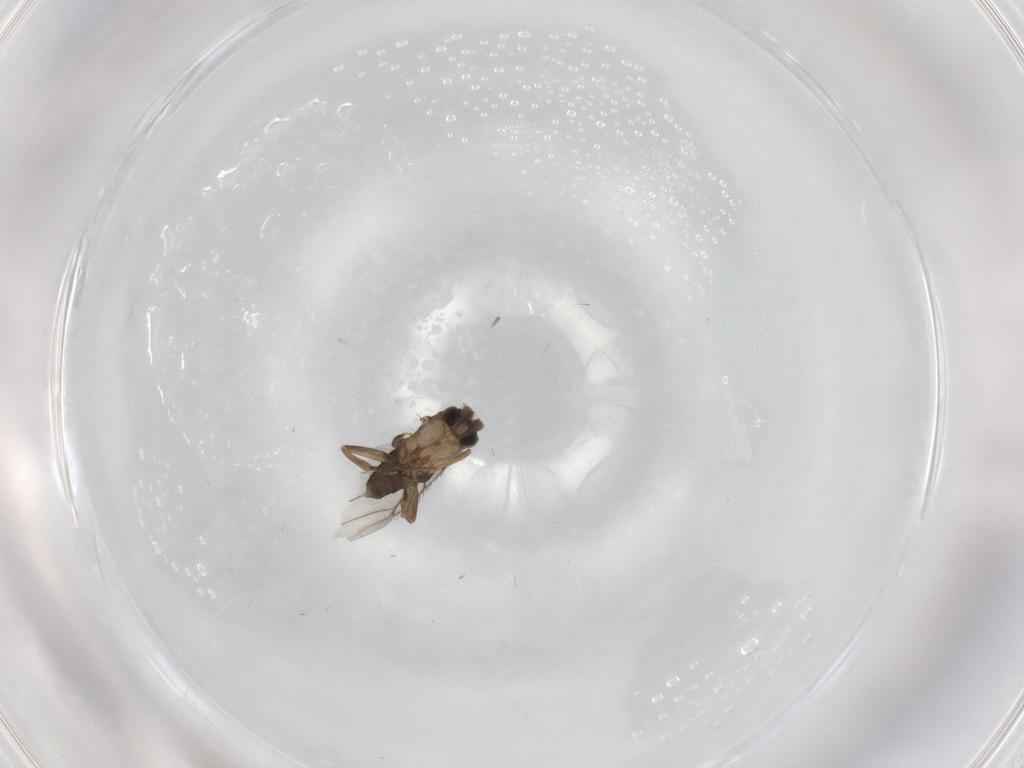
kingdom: Animalia
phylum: Arthropoda
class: Insecta
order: Diptera
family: Phoridae
